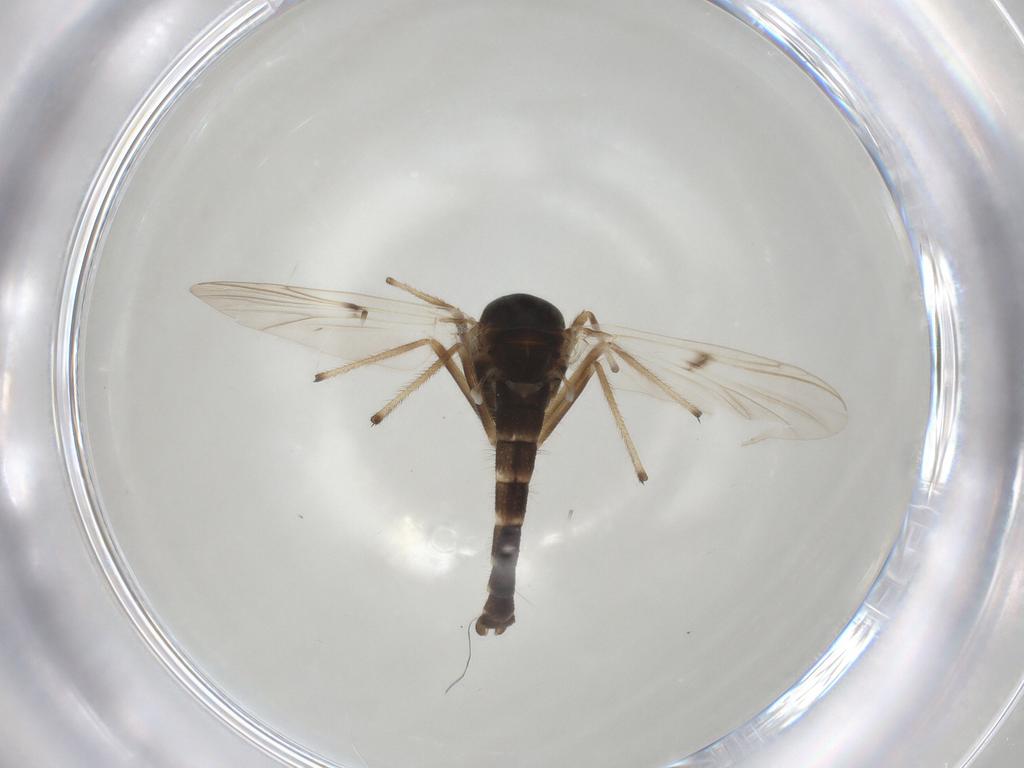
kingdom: Animalia
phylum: Arthropoda
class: Insecta
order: Diptera
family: Chironomidae
